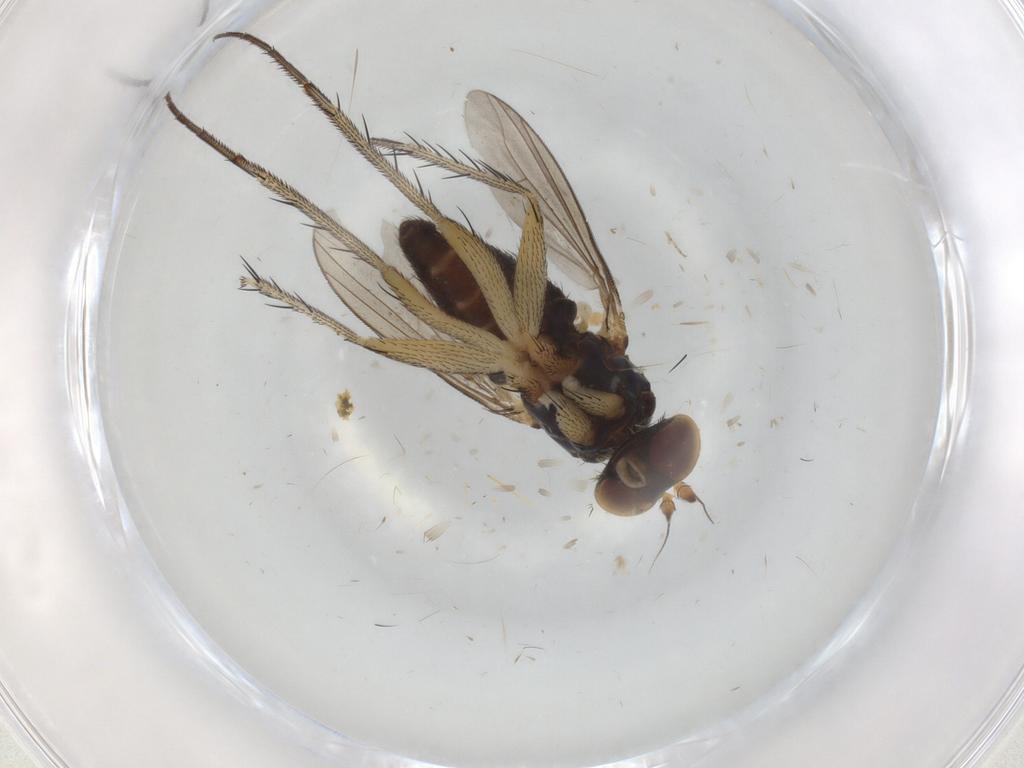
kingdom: Animalia
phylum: Arthropoda
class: Insecta
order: Diptera
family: Dolichopodidae
